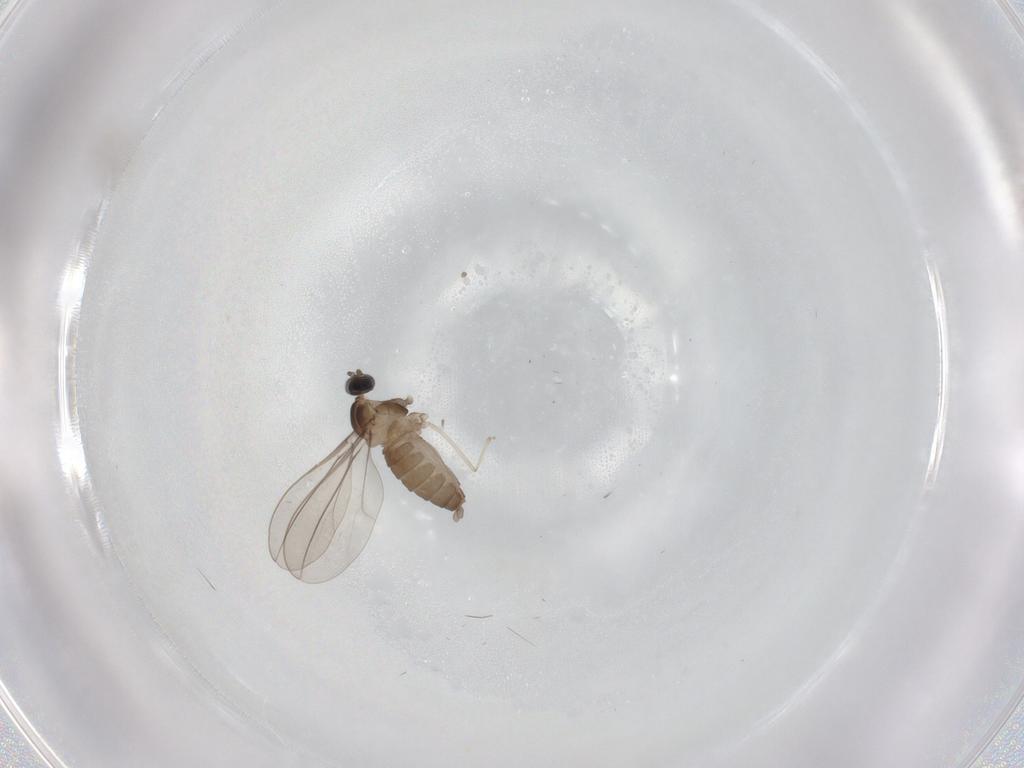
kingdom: Animalia
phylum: Arthropoda
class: Insecta
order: Diptera
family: Cecidomyiidae
